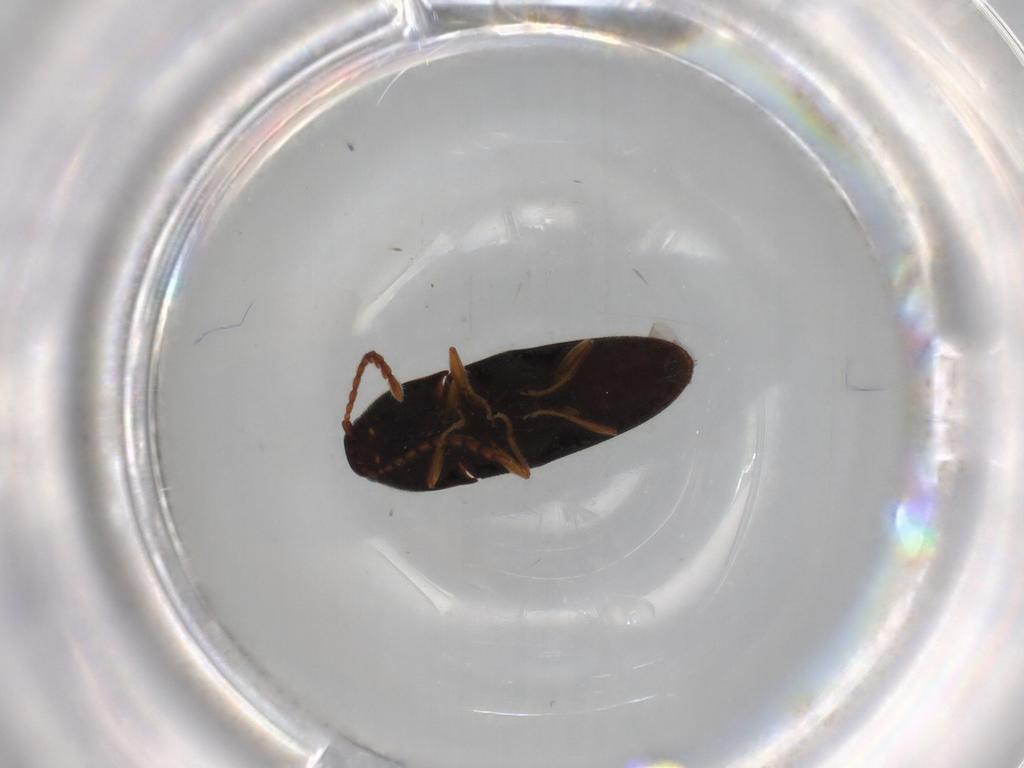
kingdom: Animalia
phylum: Arthropoda
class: Insecta
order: Coleoptera
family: Elateridae
